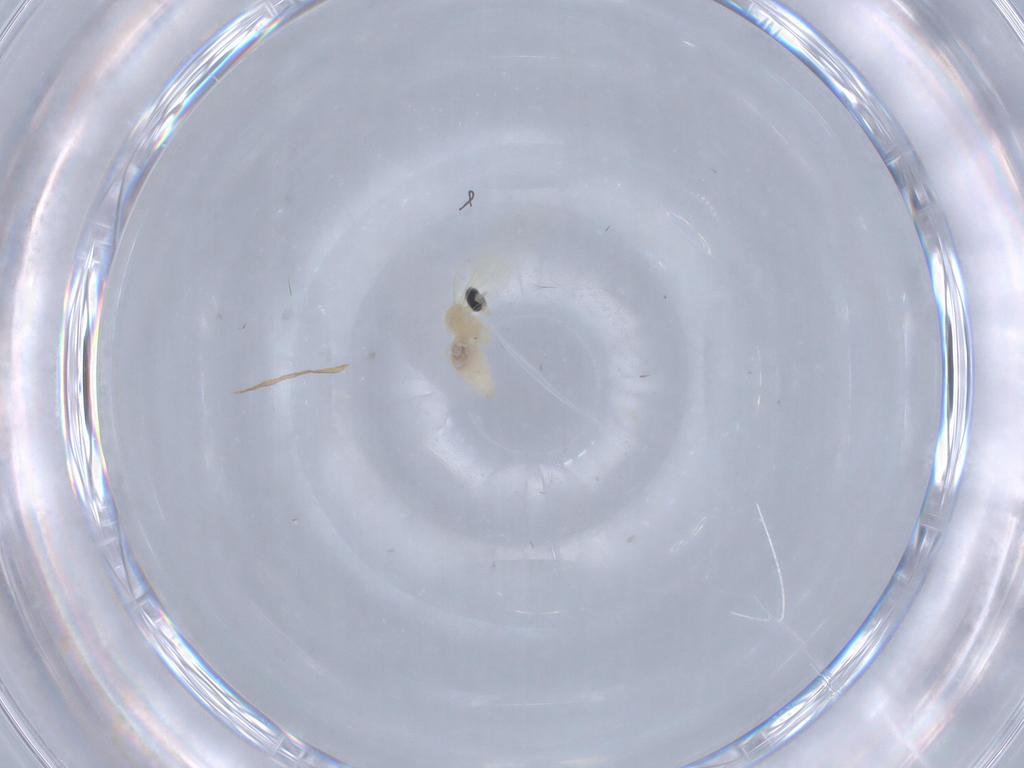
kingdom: Animalia
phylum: Arthropoda
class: Insecta
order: Diptera
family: Cecidomyiidae
